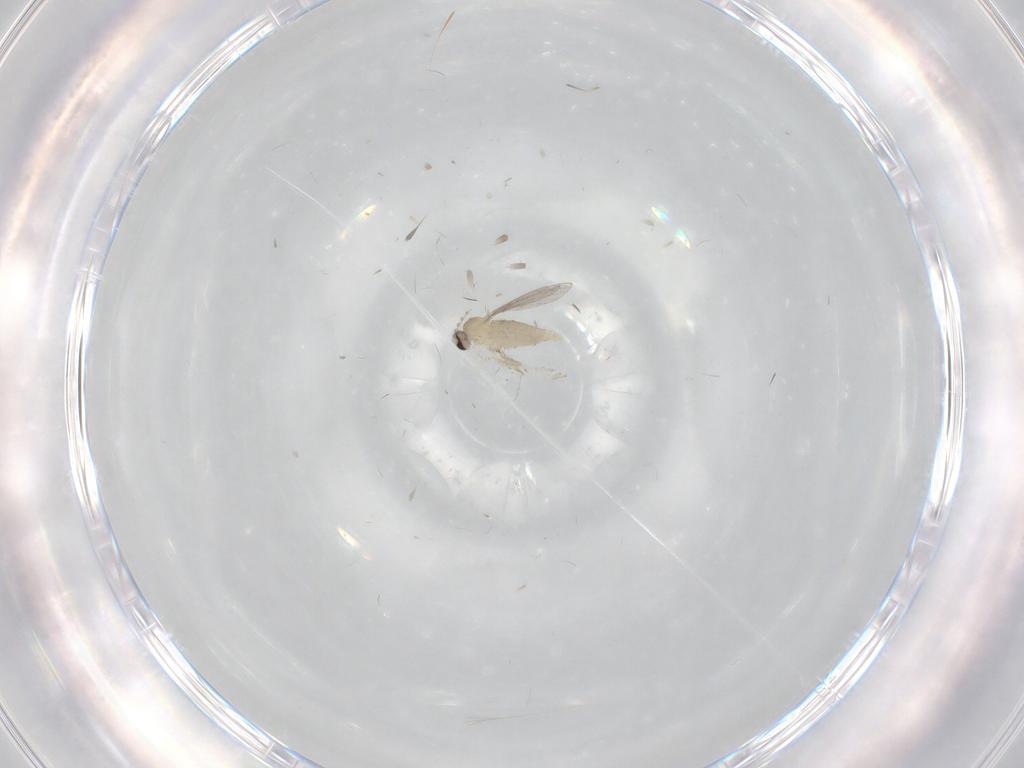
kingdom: Animalia
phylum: Arthropoda
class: Insecta
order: Diptera
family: Cecidomyiidae
